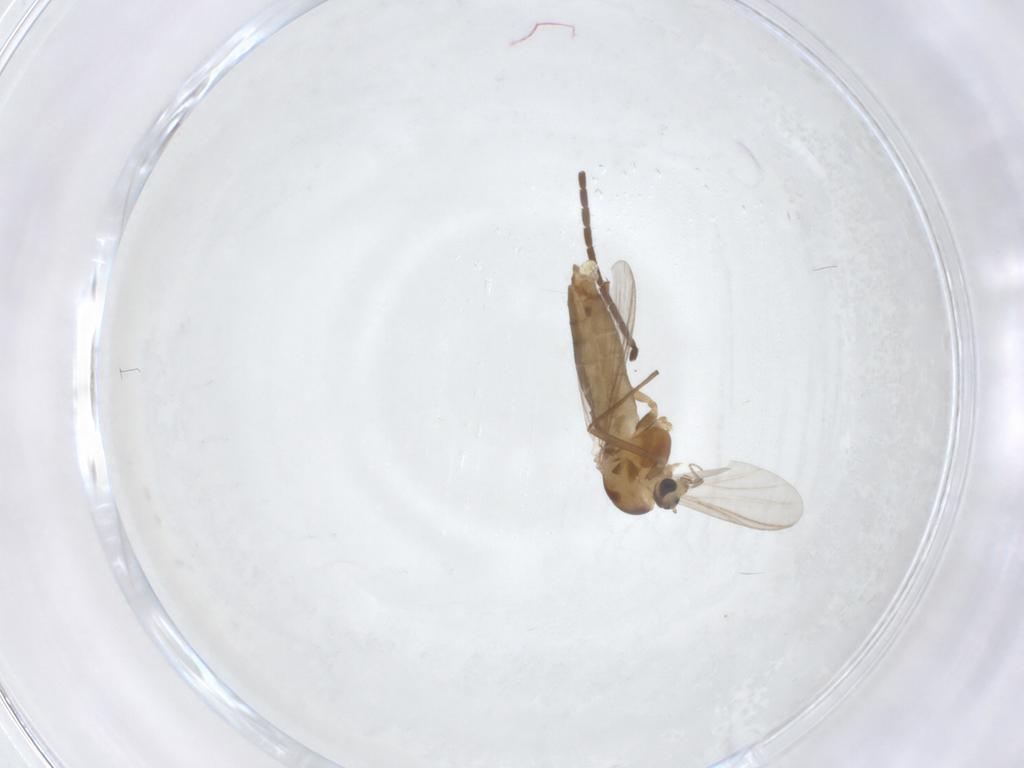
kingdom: Animalia
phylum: Arthropoda
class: Insecta
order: Diptera
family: Chironomidae
